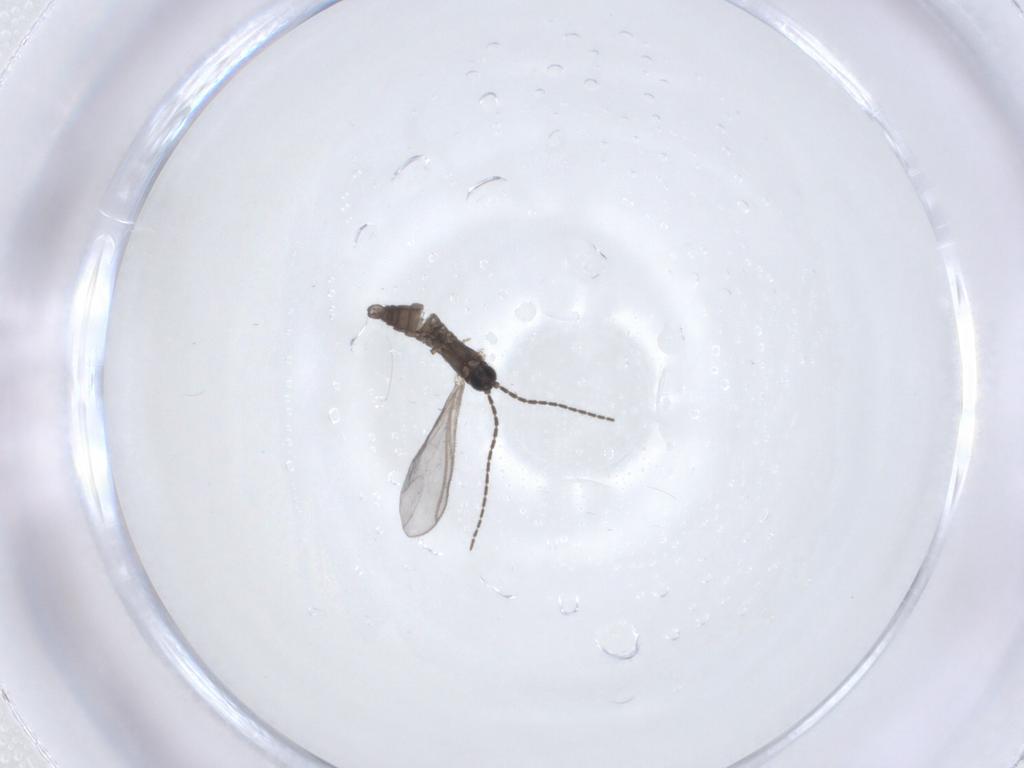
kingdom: Animalia
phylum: Arthropoda
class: Insecta
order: Diptera
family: Sciaridae
